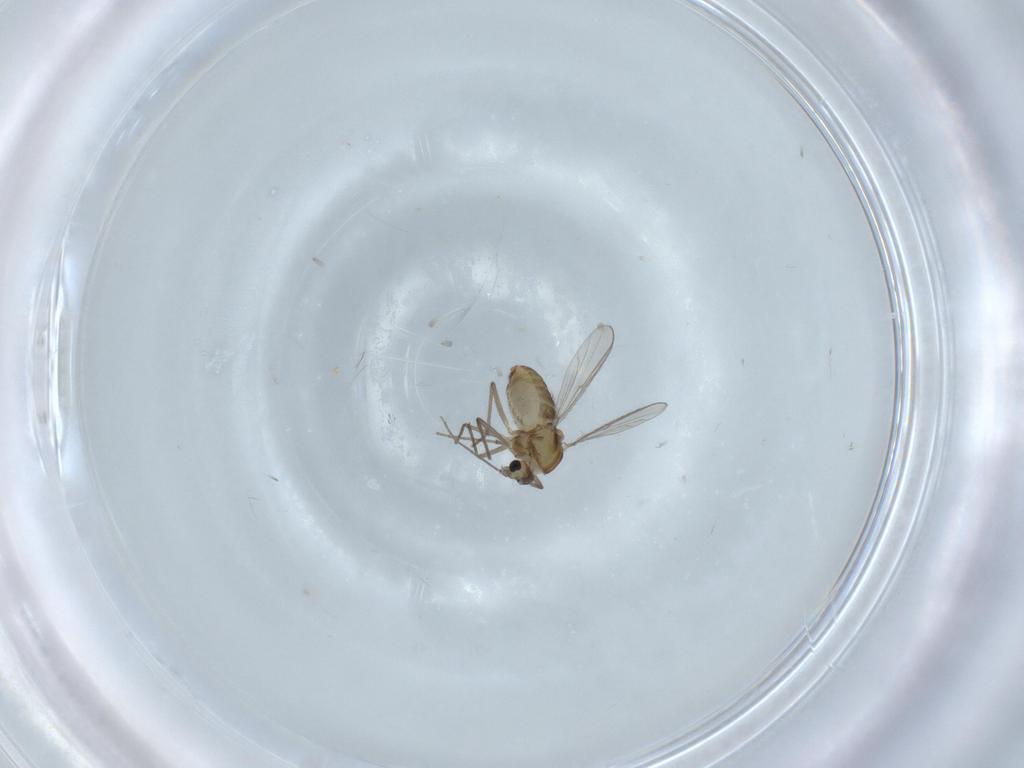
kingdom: Animalia
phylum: Arthropoda
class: Insecta
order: Diptera
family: Chironomidae
